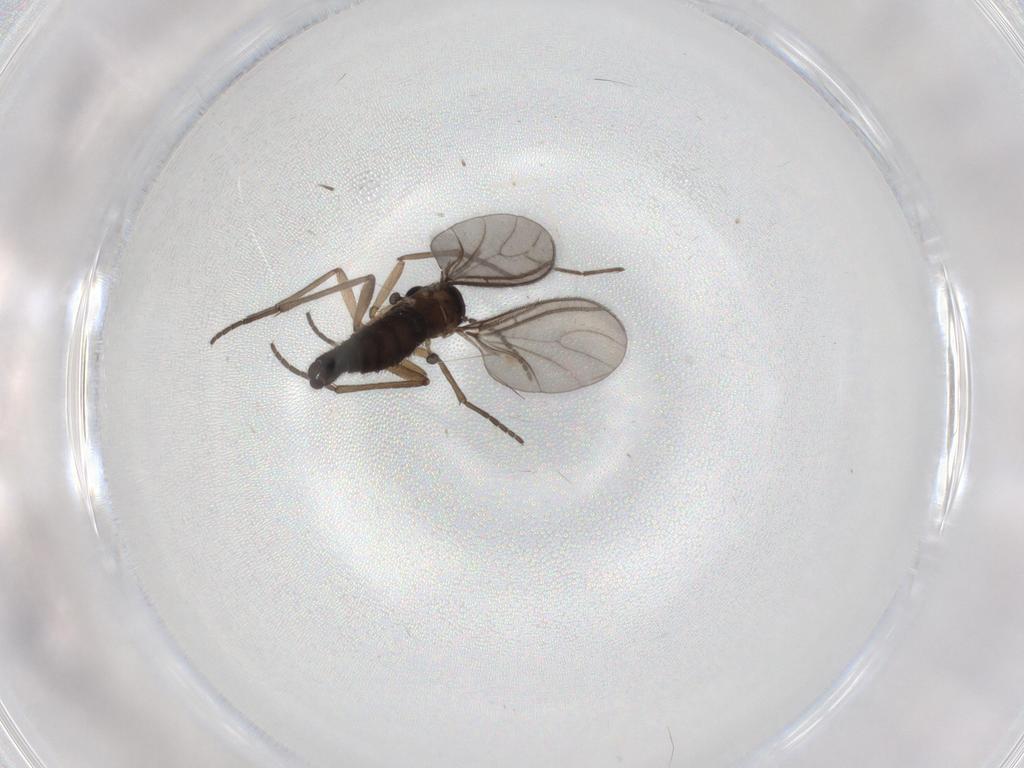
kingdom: Animalia
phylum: Arthropoda
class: Insecta
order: Diptera
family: Sciaridae
